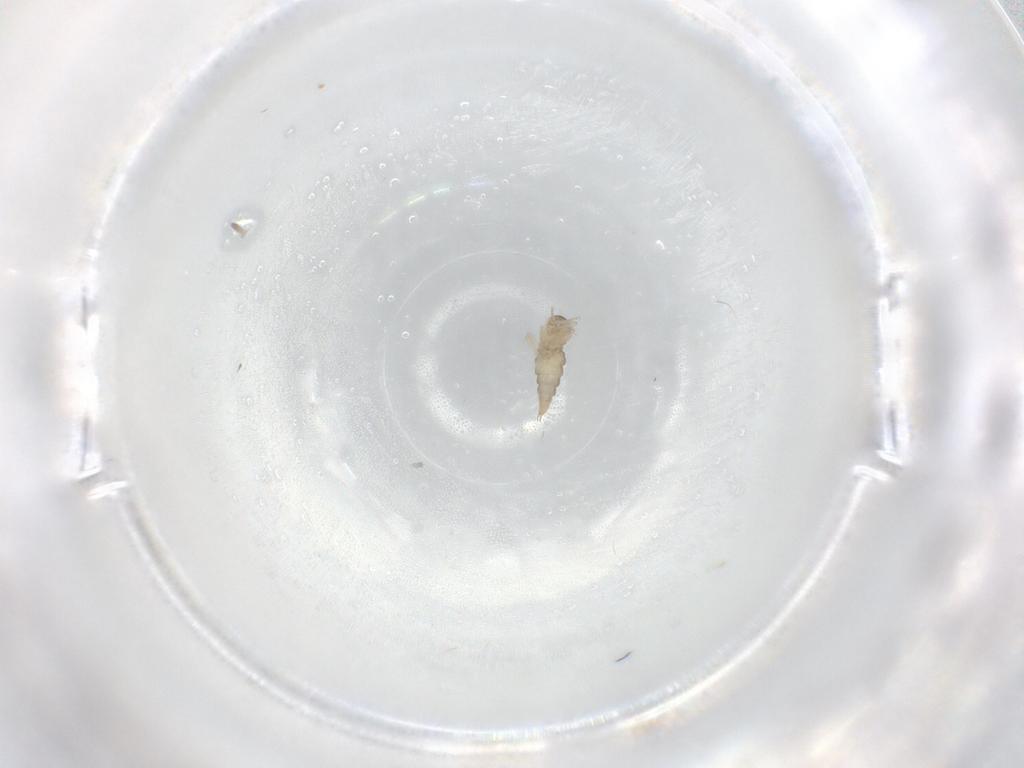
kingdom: Animalia
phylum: Arthropoda
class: Insecta
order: Diptera
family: Cecidomyiidae
